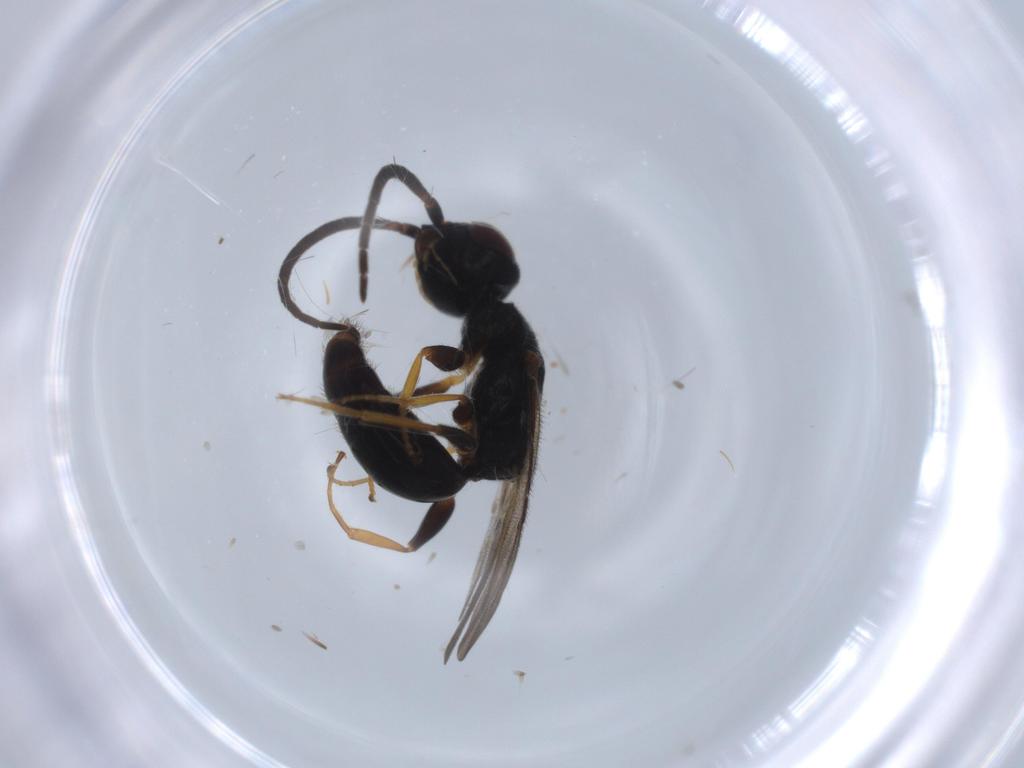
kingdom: Animalia
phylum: Arthropoda
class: Insecta
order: Hymenoptera
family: Bethylidae
